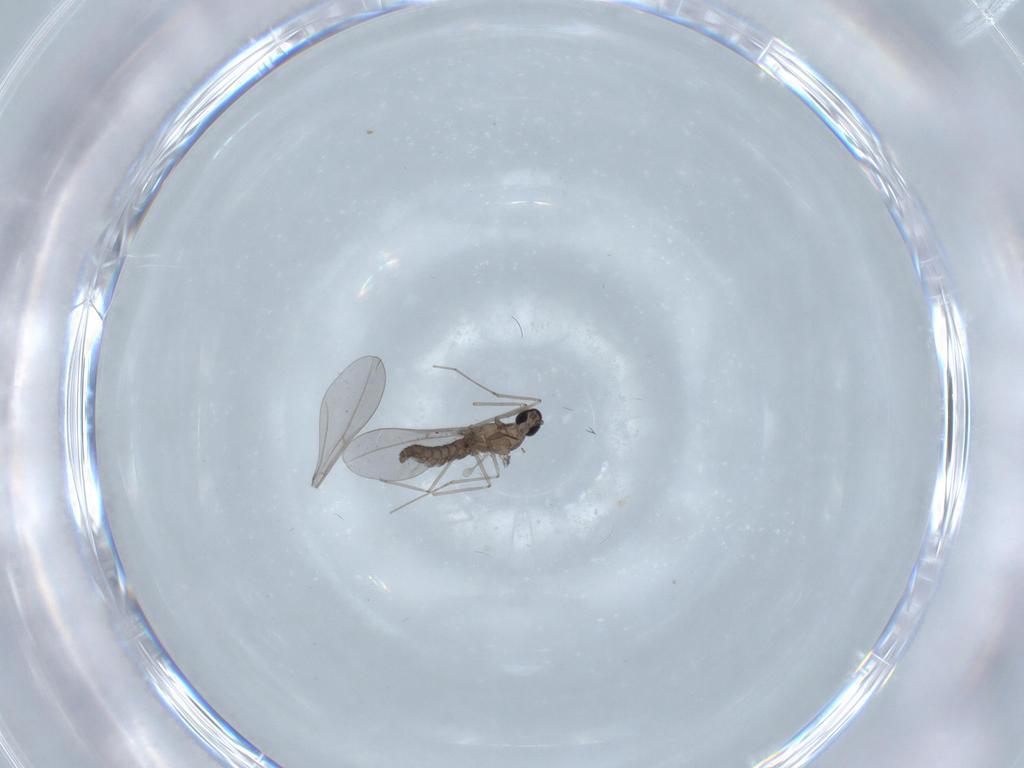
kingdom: Animalia
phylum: Arthropoda
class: Insecta
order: Diptera
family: Cecidomyiidae
